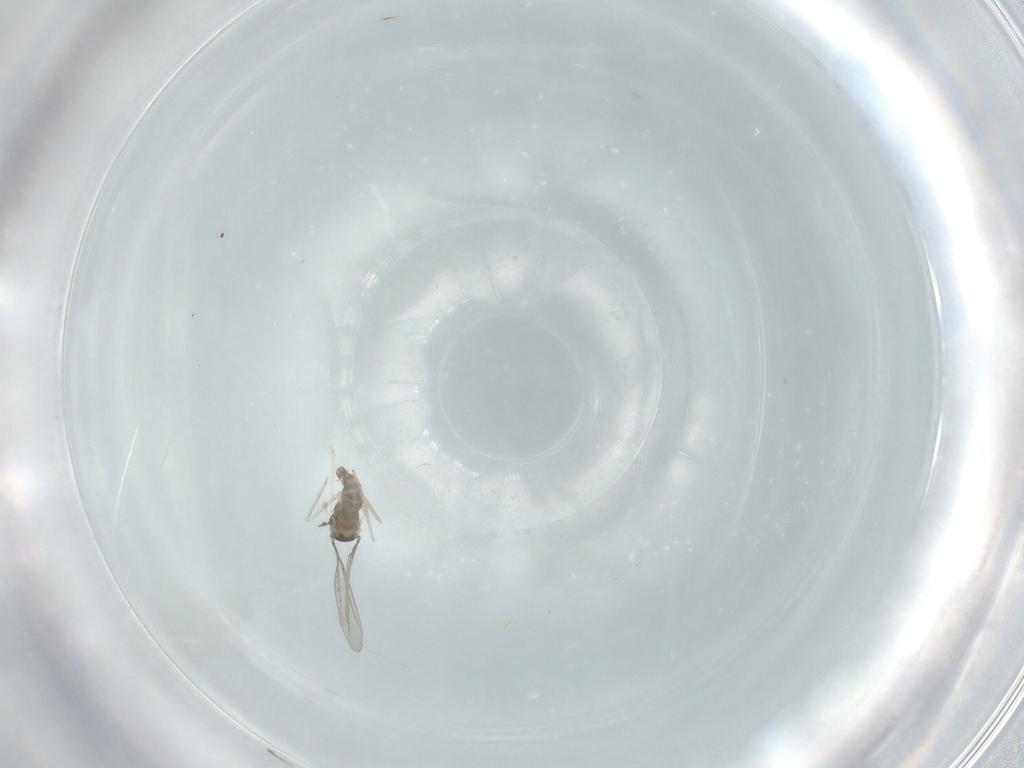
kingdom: Animalia
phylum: Arthropoda
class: Insecta
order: Diptera
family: Cecidomyiidae
